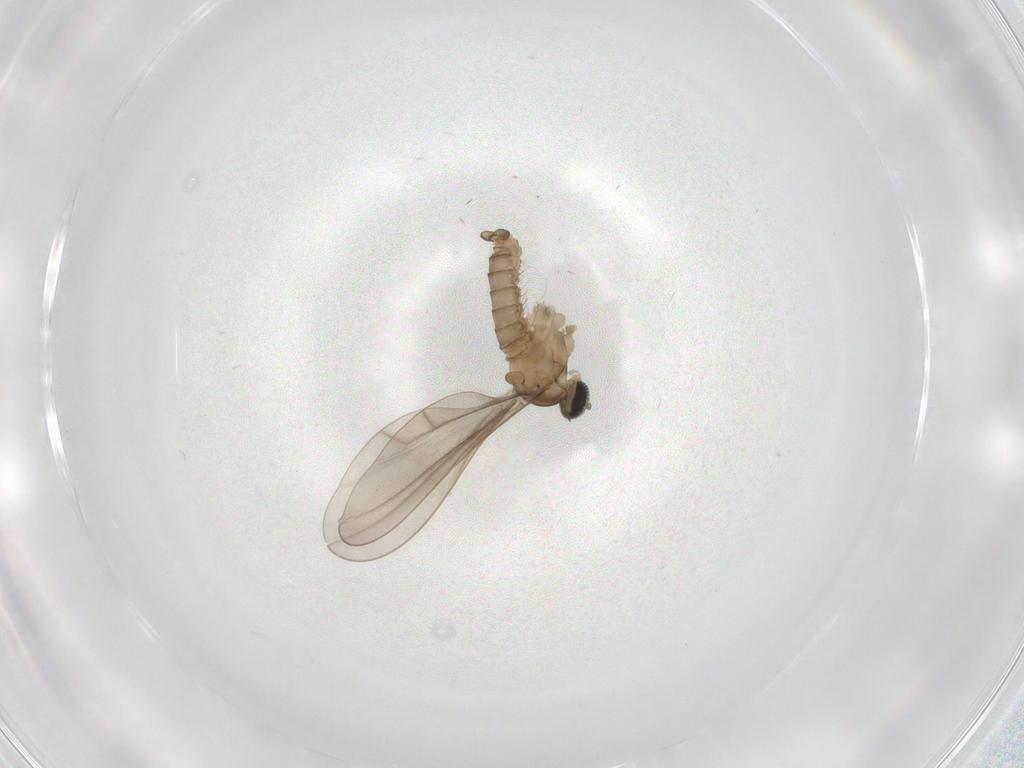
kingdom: Animalia
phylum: Arthropoda
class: Insecta
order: Diptera
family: Cecidomyiidae
